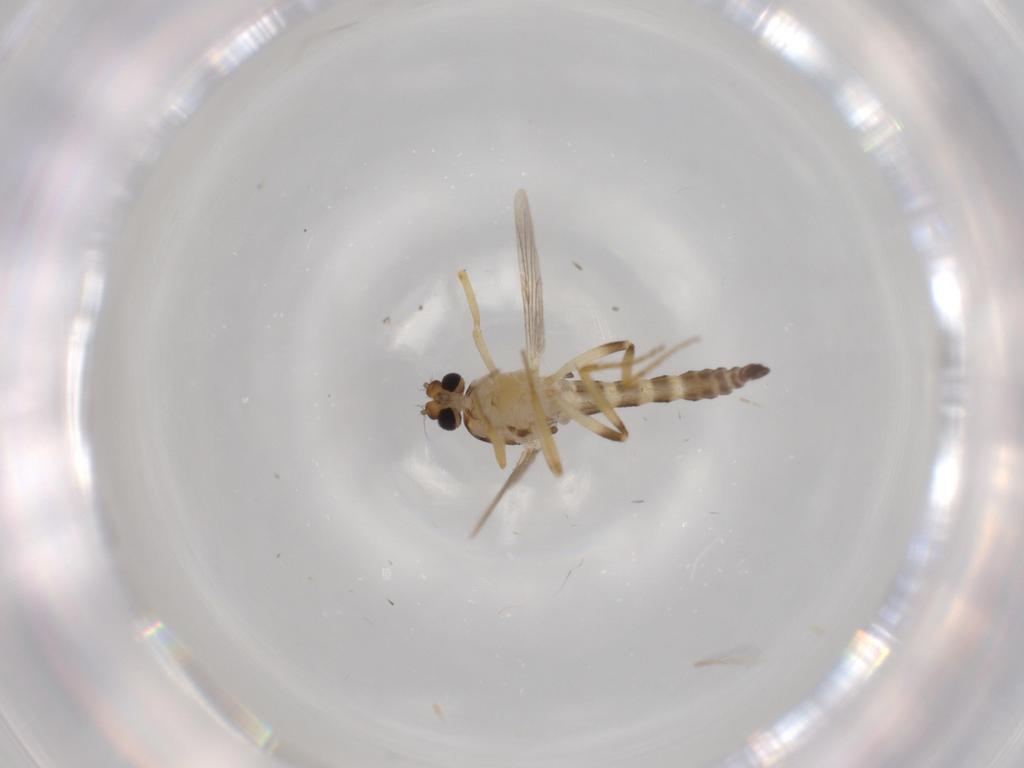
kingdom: Animalia
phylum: Arthropoda
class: Insecta
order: Diptera
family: Ceratopogonidae
